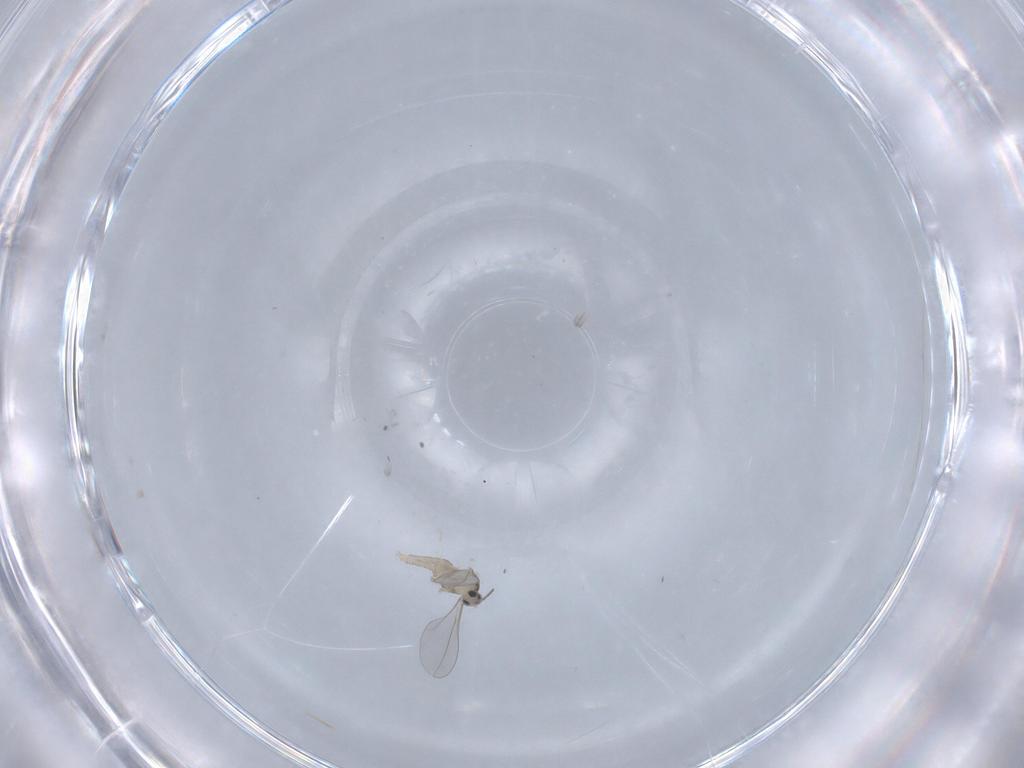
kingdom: Animalia
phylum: Arthropoda
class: Insecta
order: Diptera
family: Cecidomyiidae
